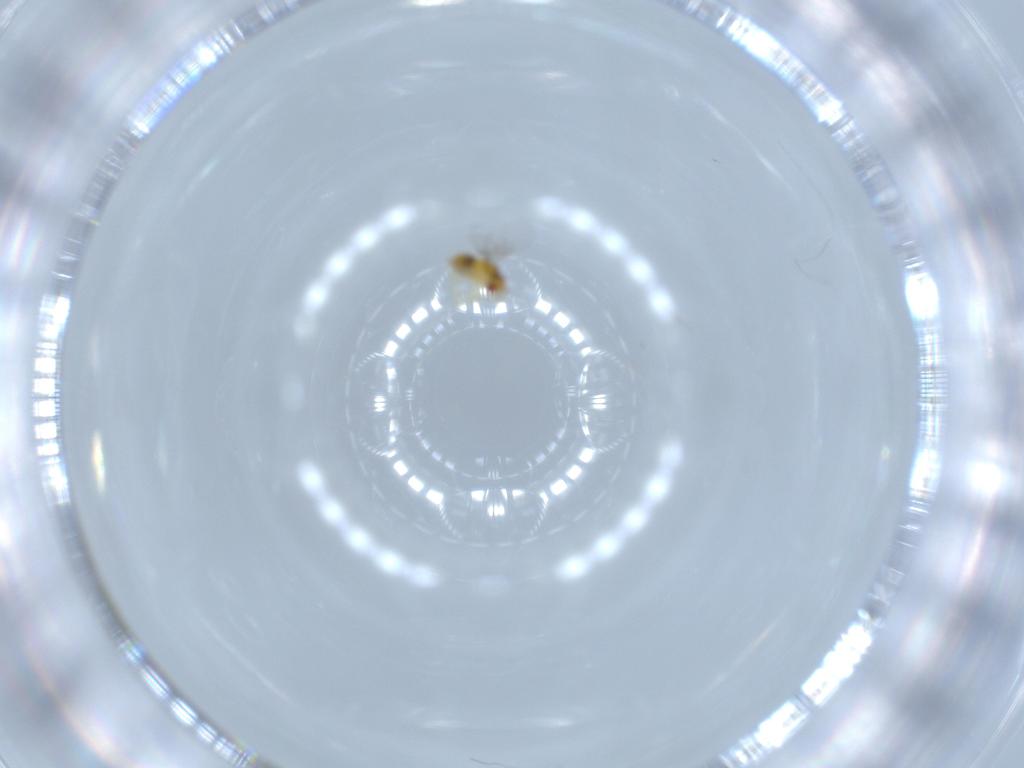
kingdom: Animalia
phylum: Arthropoda
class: Insecta
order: Hymenoptera
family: Trichogrammatidae
